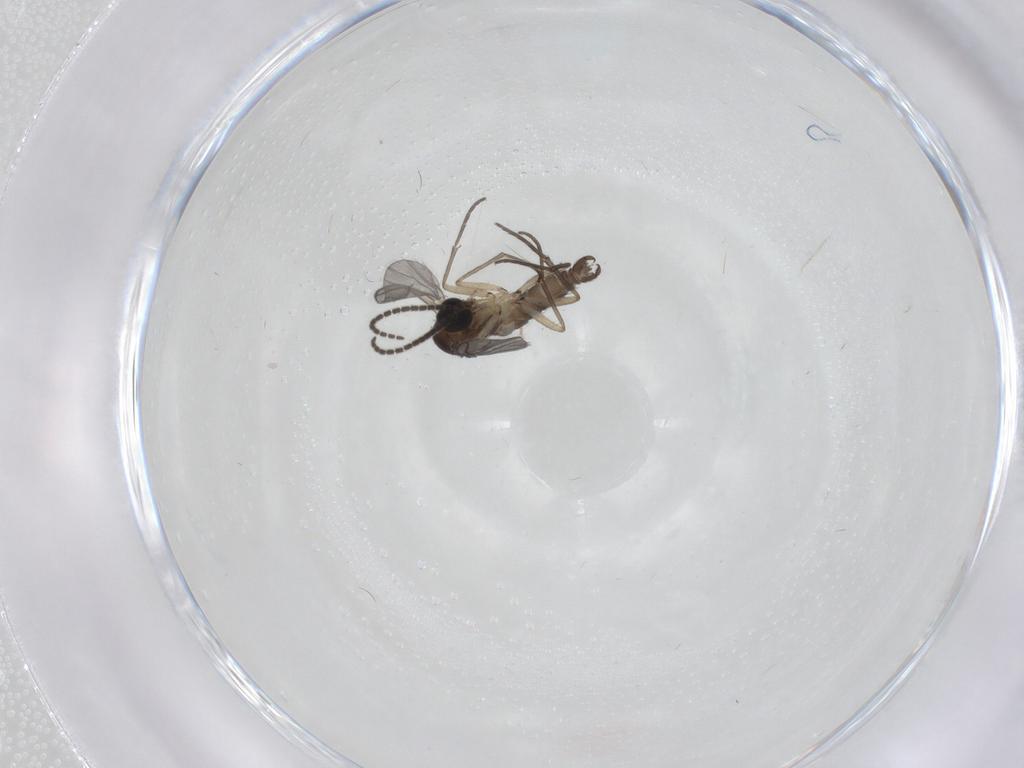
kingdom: Animalia
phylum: Arthropoda
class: Insecta
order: Diptera
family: Sciaridae
